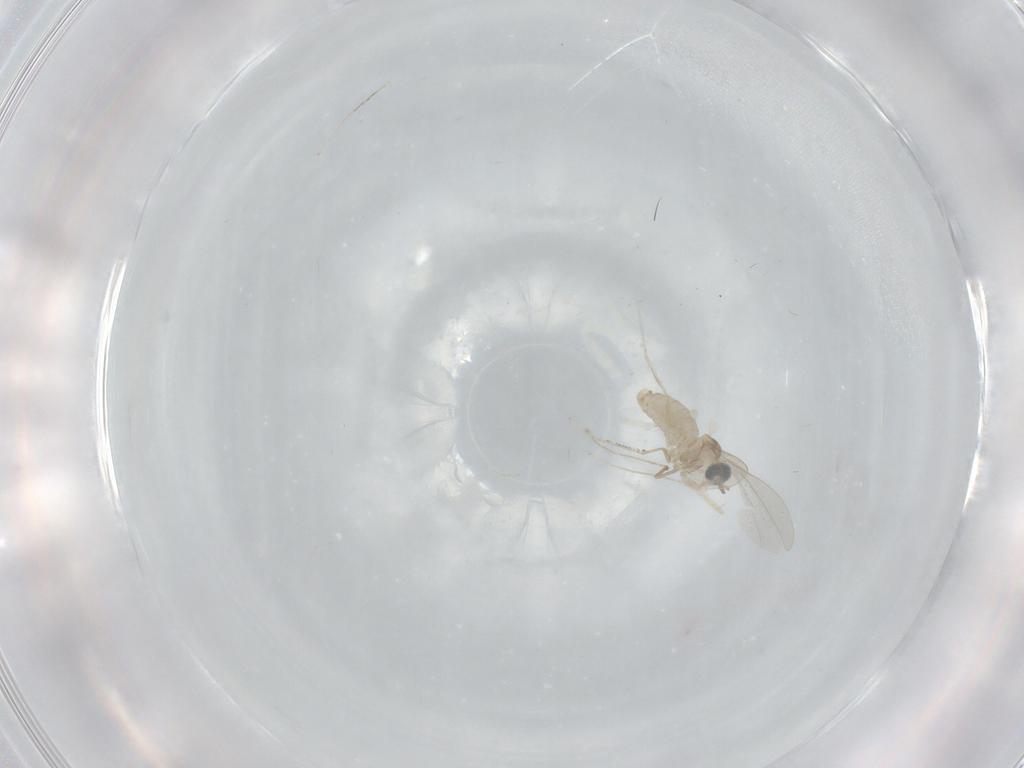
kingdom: Animalia
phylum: Arthropoda
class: Insecta
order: Diptera
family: Cecidomyiidae
